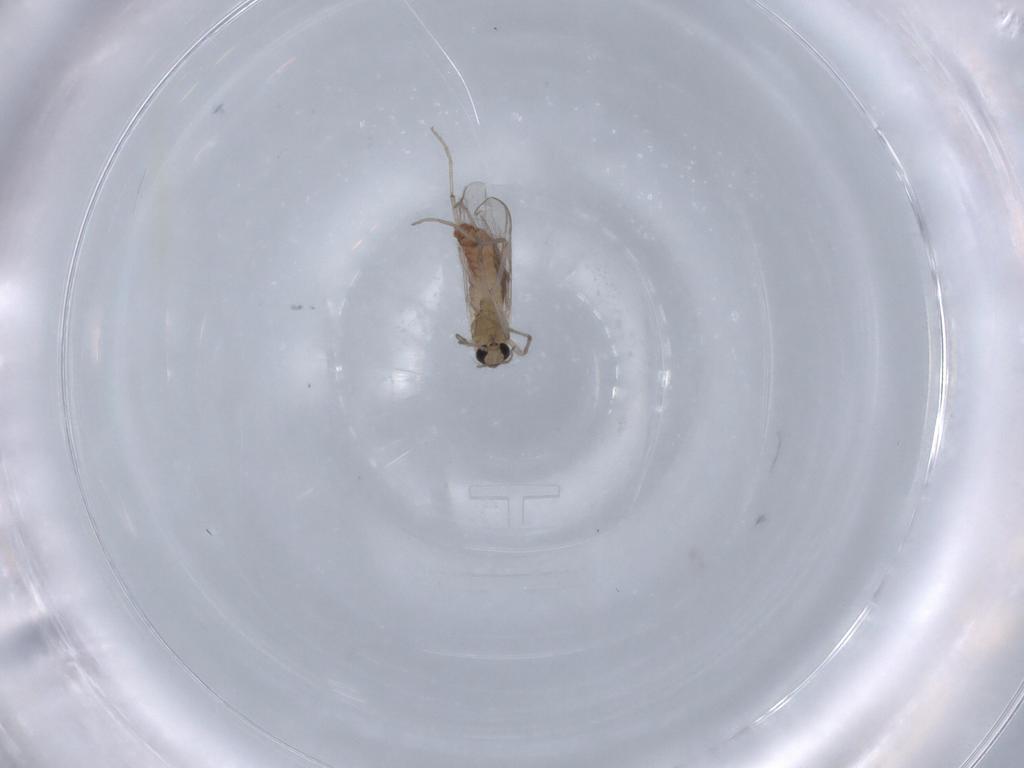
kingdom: Animalia
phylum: Arthropoda
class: Insecta
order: Diptera
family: Chironomidae
